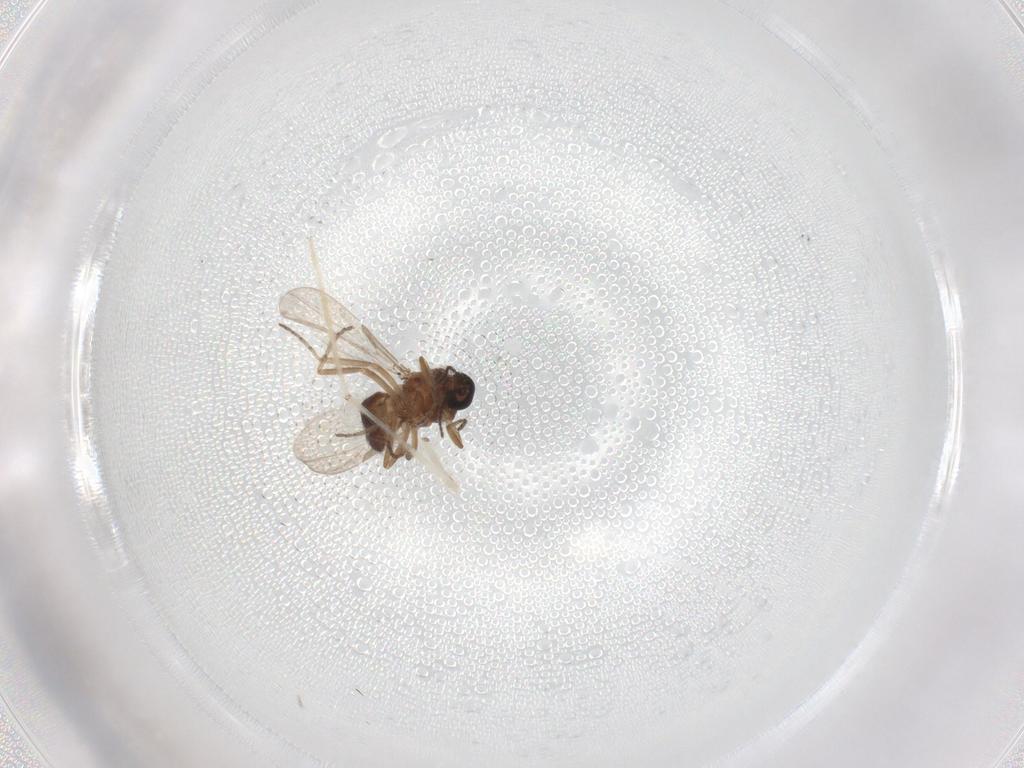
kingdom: Animalia
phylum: Arthropoda
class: Insecta
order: Diptera
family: Ceratopogonidae
